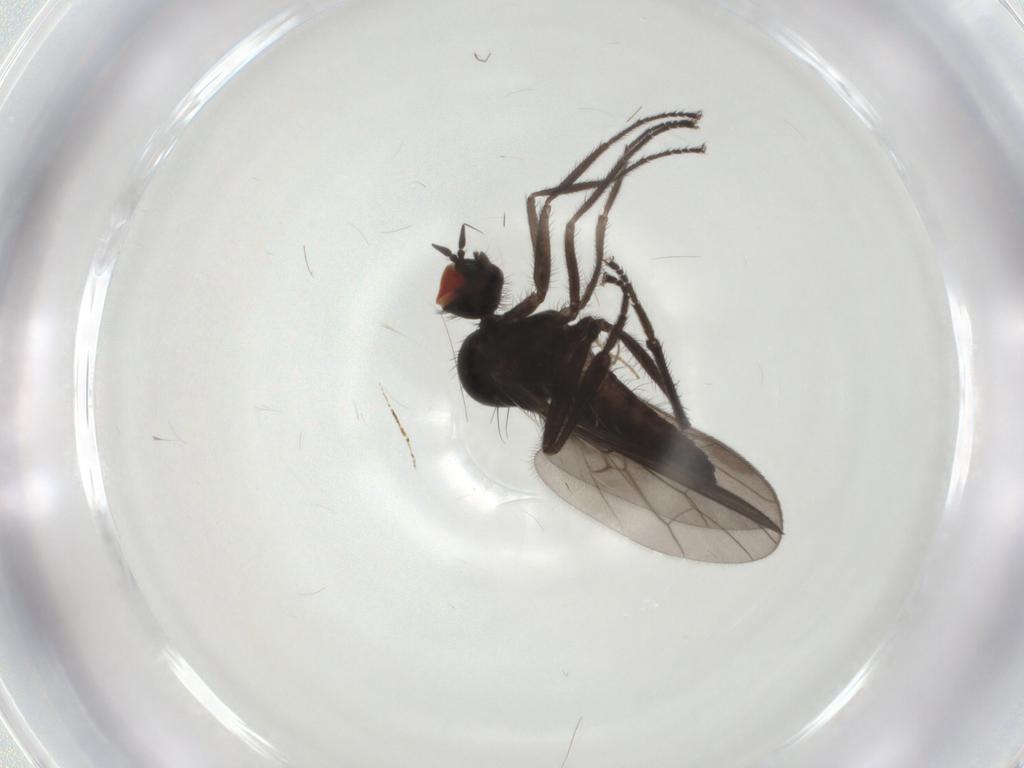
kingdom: Animalia
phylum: Arthropoda
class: Insecta
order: Diptera
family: Hybotidae
